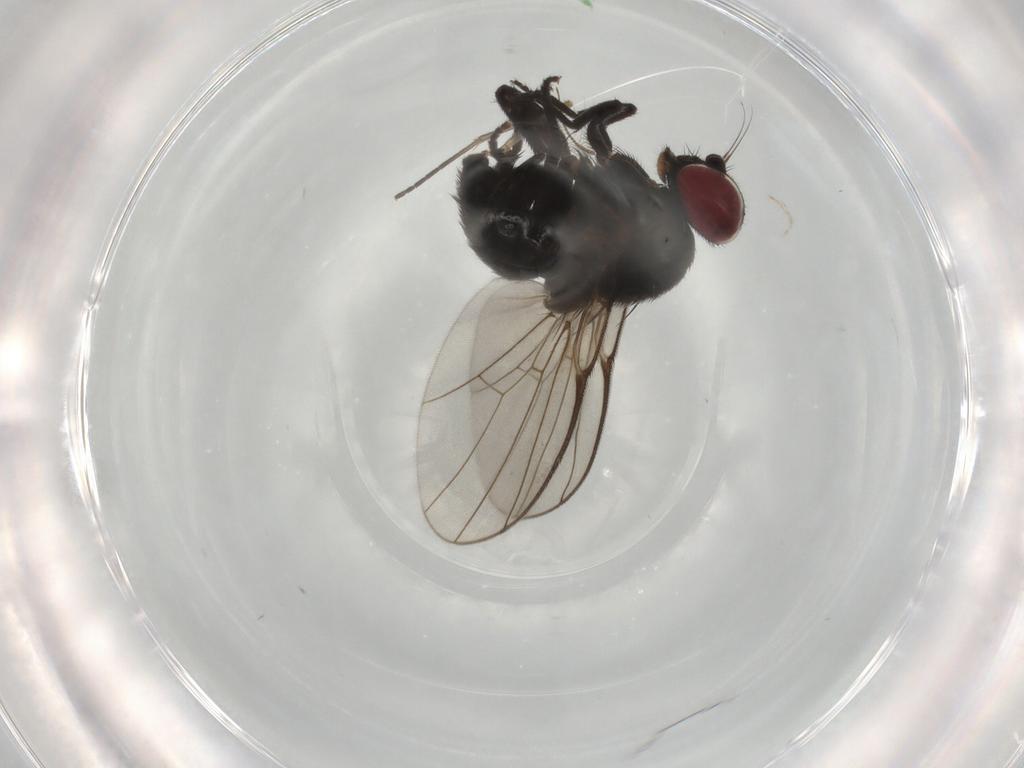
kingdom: Animalia
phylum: Arthropoda
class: Insecta
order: Diptera
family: Agromyzidae
